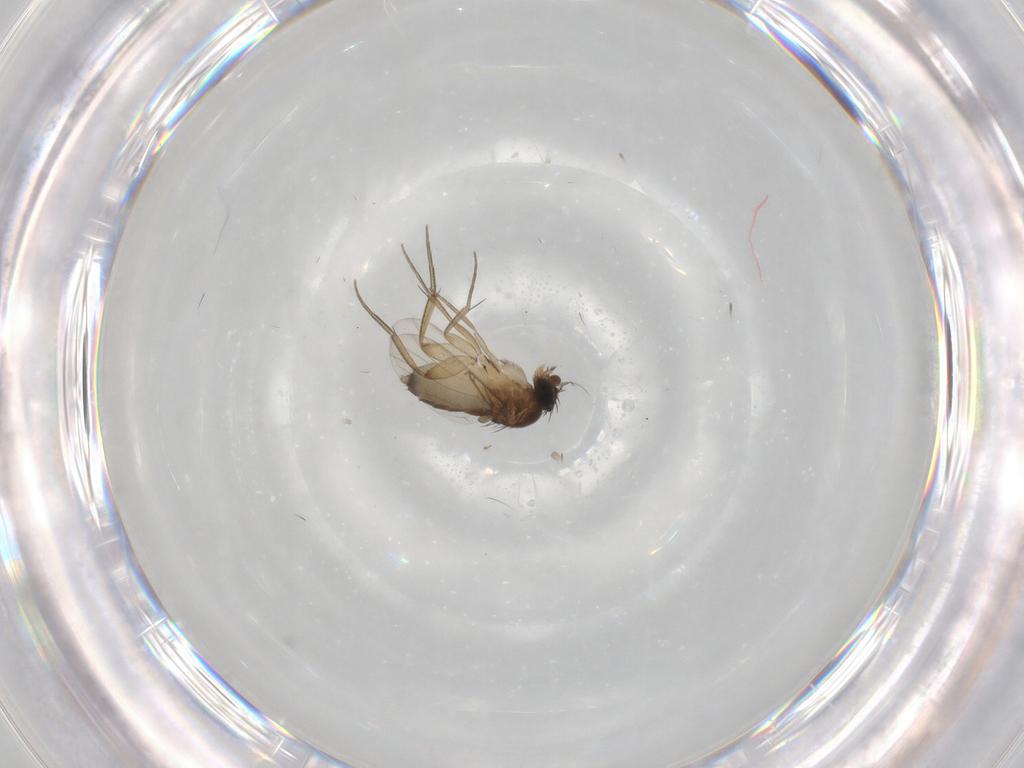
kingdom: Animalia
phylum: Arthropoda
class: Insecta
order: Diptera
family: Phoridae
